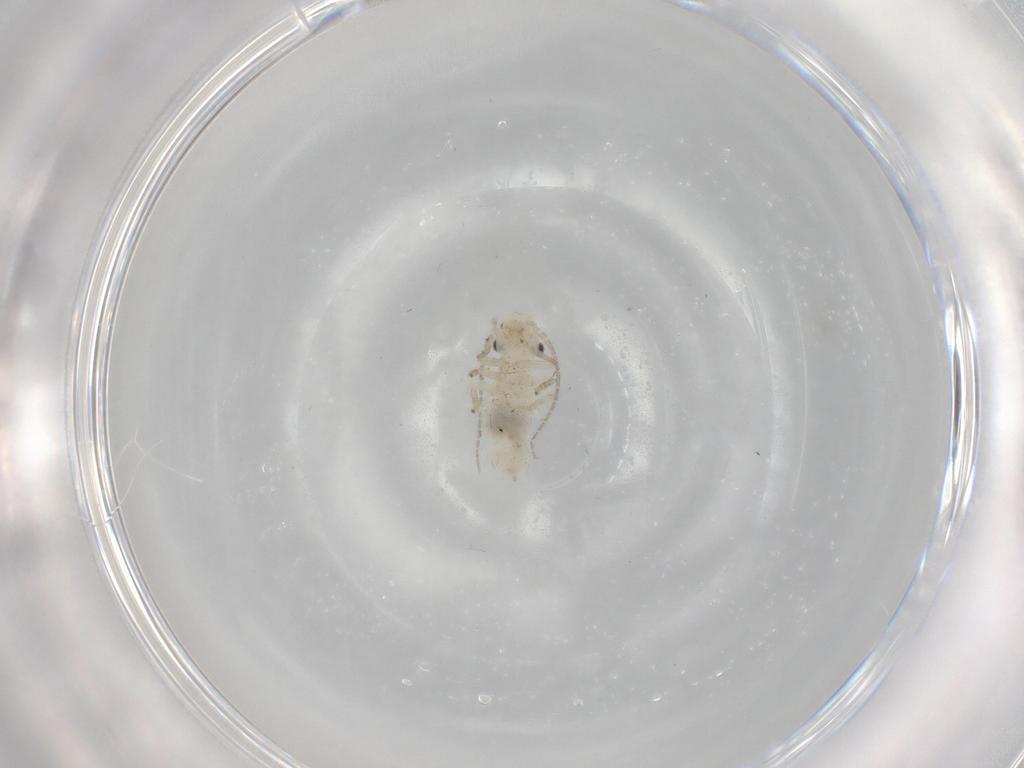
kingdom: Animalia
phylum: Arthropoda
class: Insecta
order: Psocodea
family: Caeciliusidae
